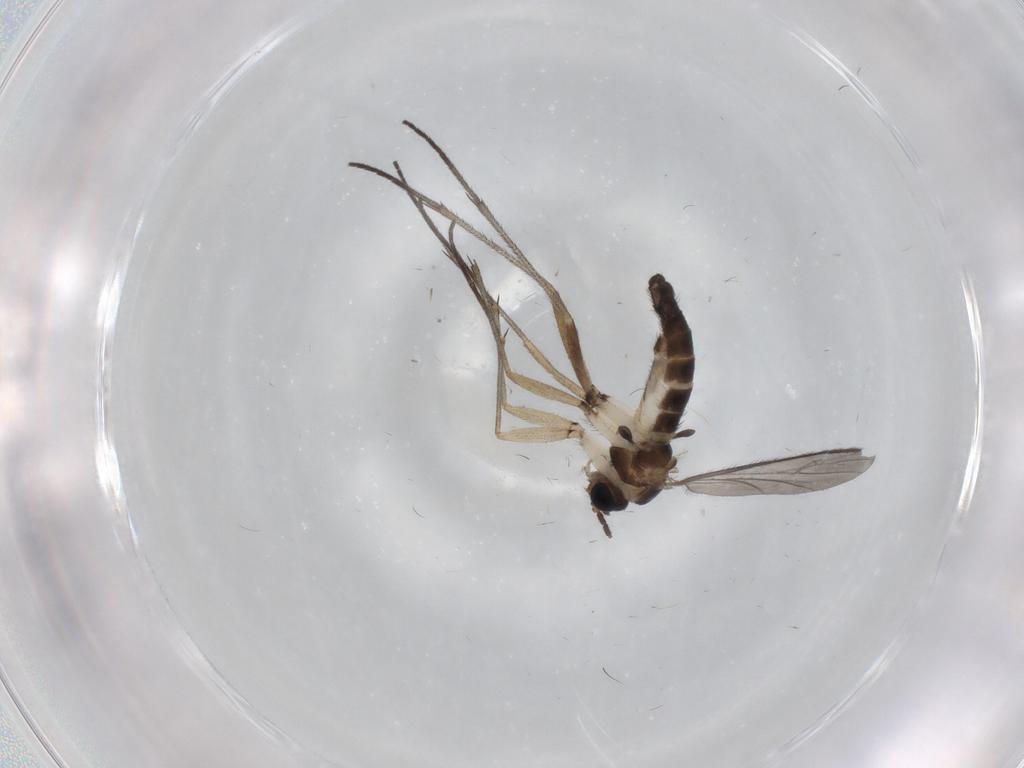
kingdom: Animalia
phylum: Arthropoda
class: Insecta
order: Diptera
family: Sciaridae
